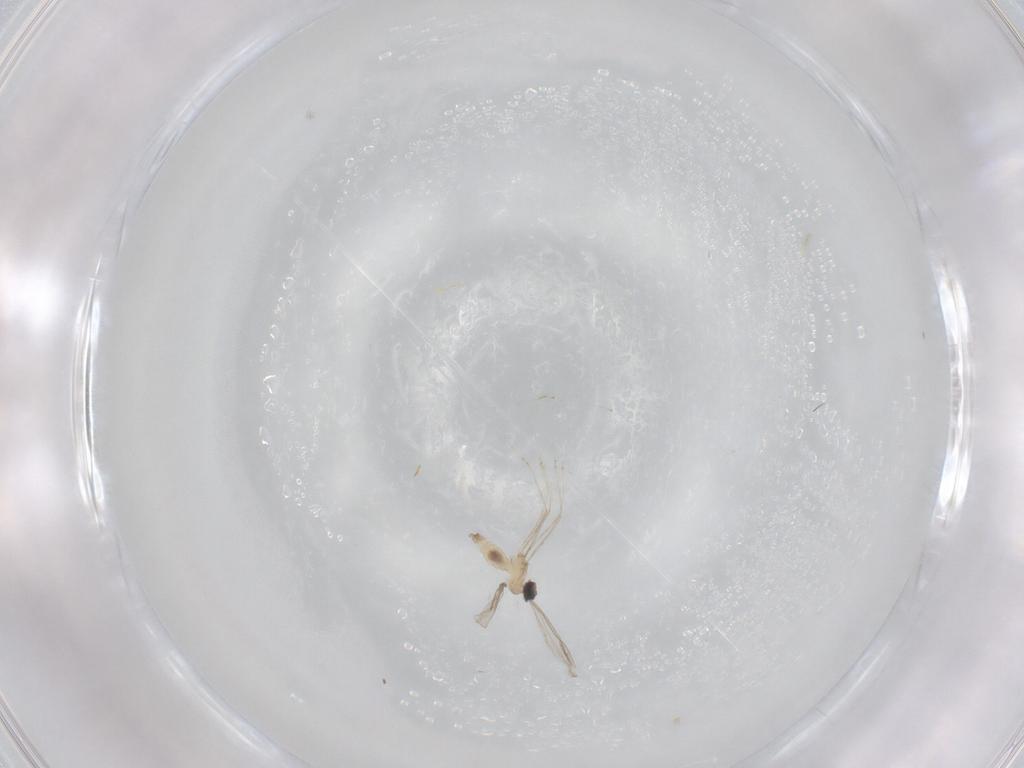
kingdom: Animalia
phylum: Arthropoda
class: Insecta
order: Diptera
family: Cecidomyiidae
